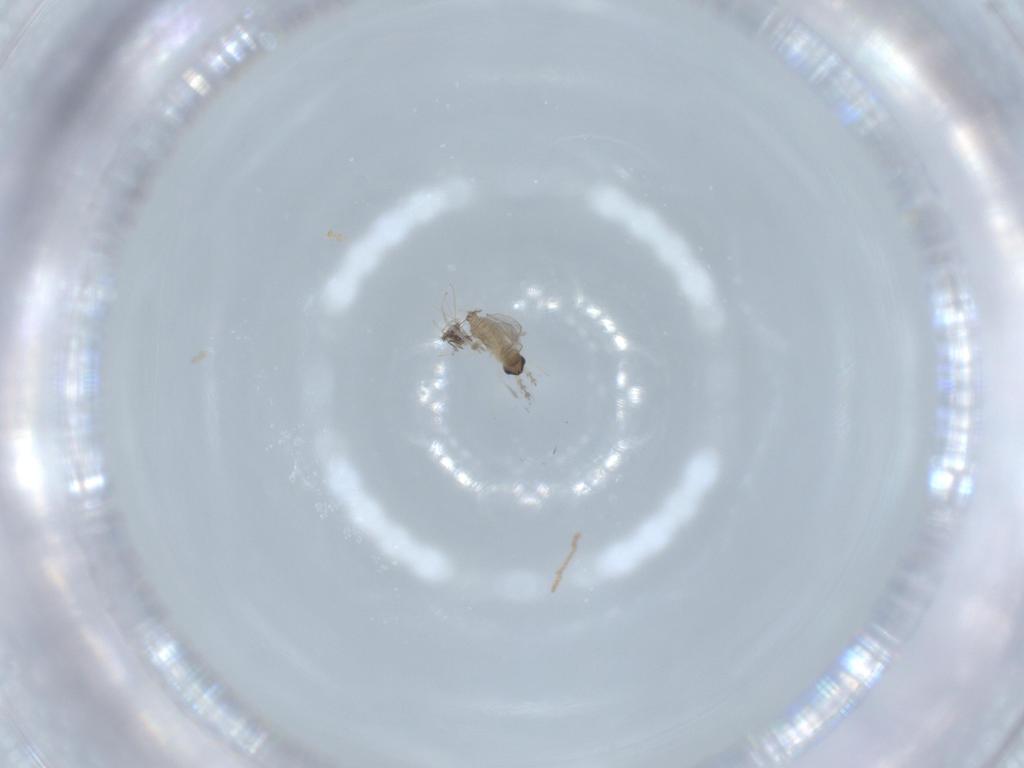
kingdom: Animalia
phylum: Arthropoda
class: Insecta
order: Diptera
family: Cecidomyiidae
